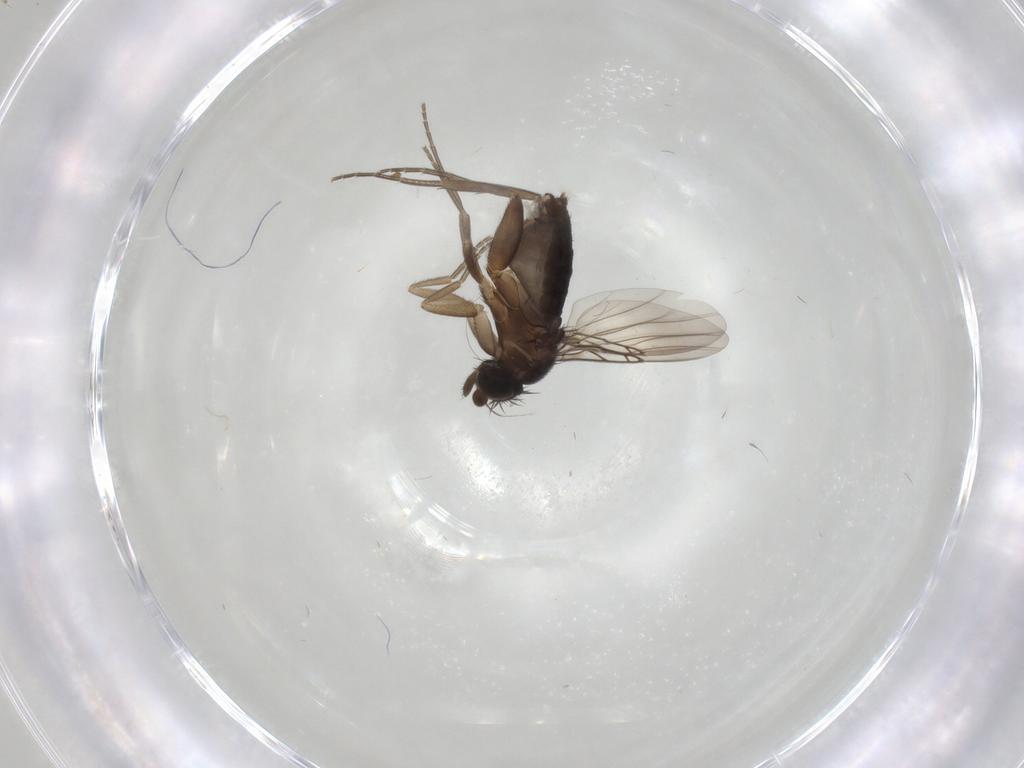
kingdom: Animalia
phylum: Arthropoda
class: Insecta
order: Diptera
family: Phoridae
